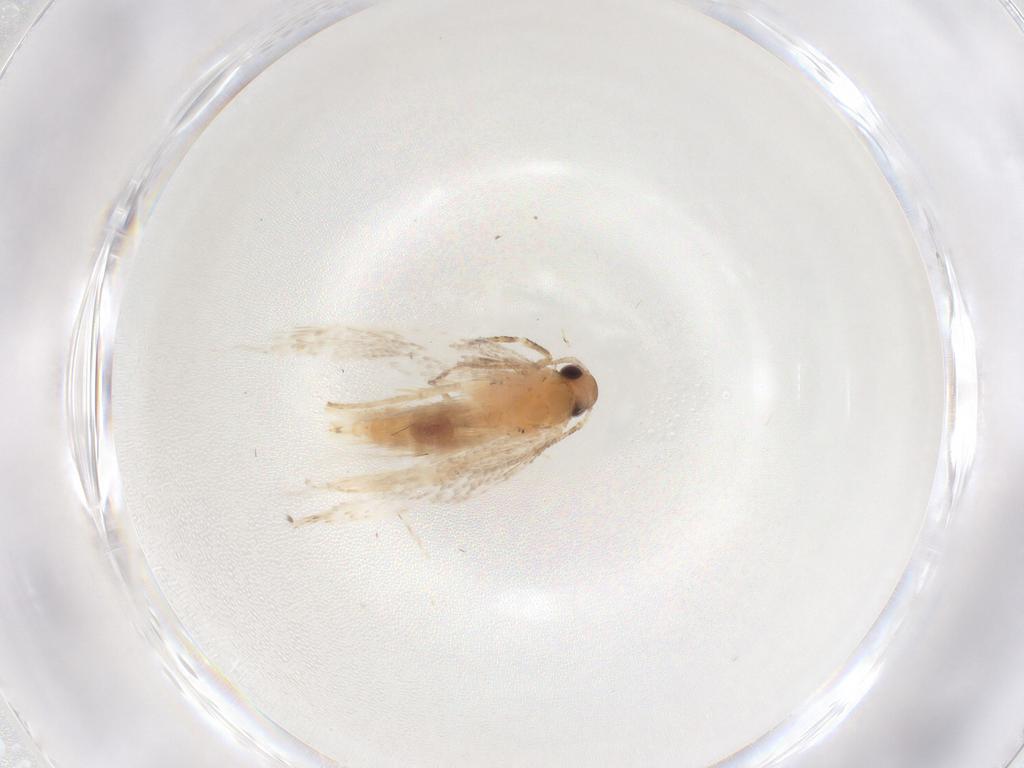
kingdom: Animalia
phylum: Arthropoda
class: Insecta
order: Lepidoptera
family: Gelechiidae
